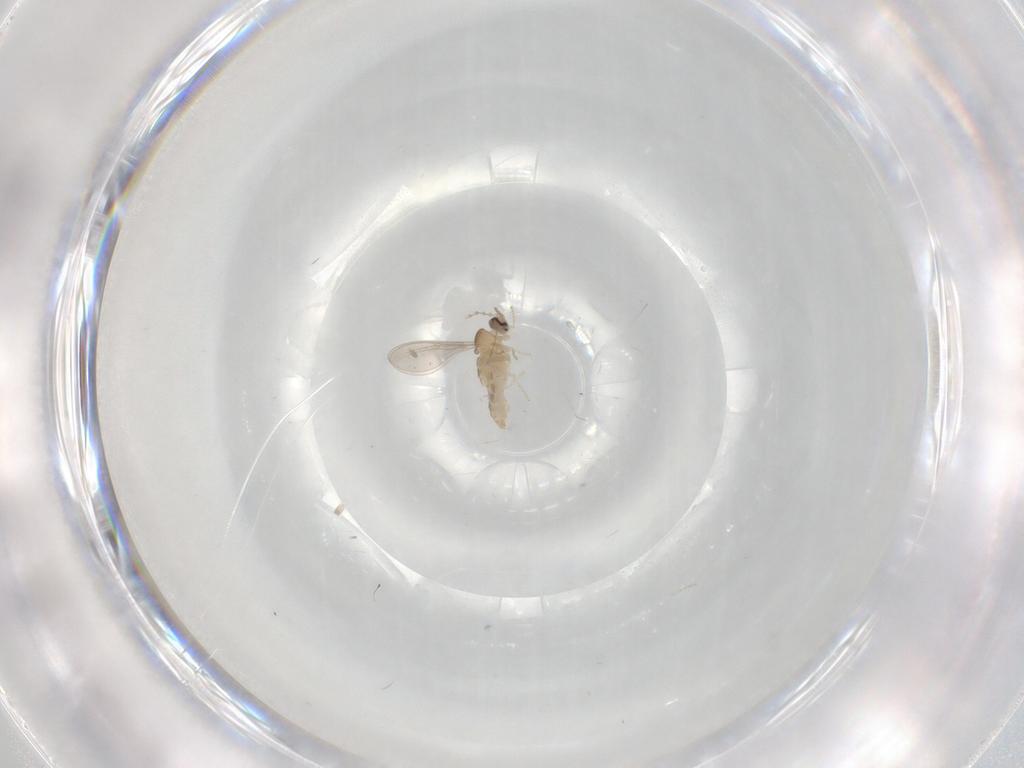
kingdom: Animalia
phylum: Arthropoda
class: Insecta
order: Diptera
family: Cecidomyiidae
